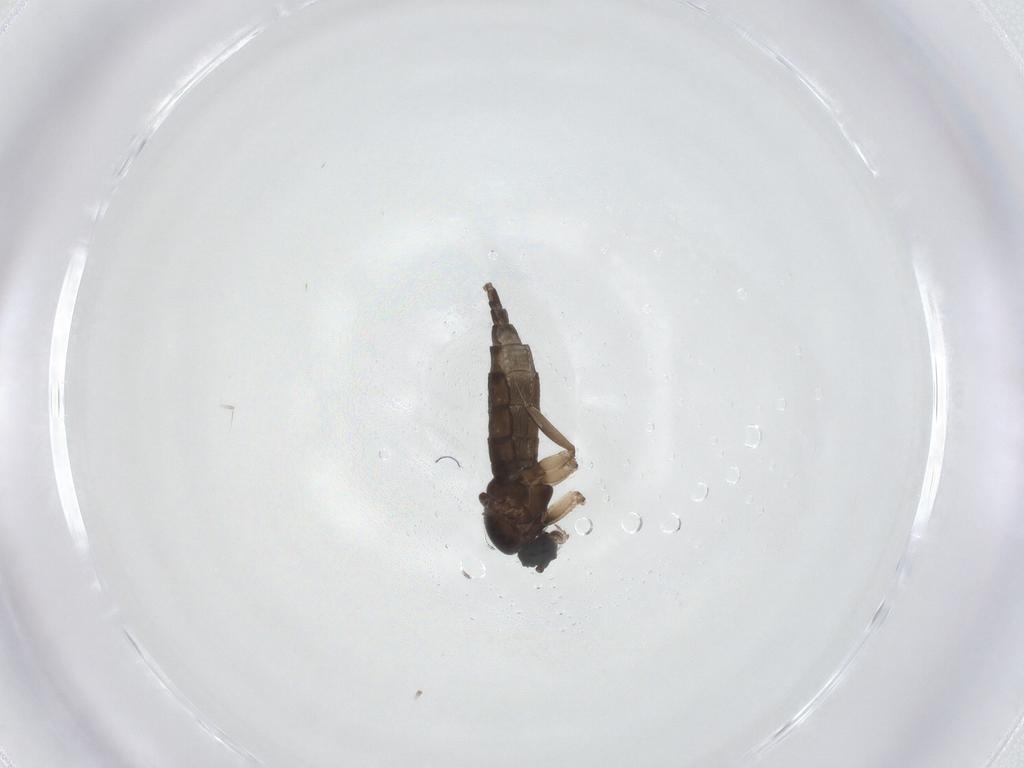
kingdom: Animalia
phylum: Arthropoda
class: Insecta
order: Diptera
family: Sciaridae
